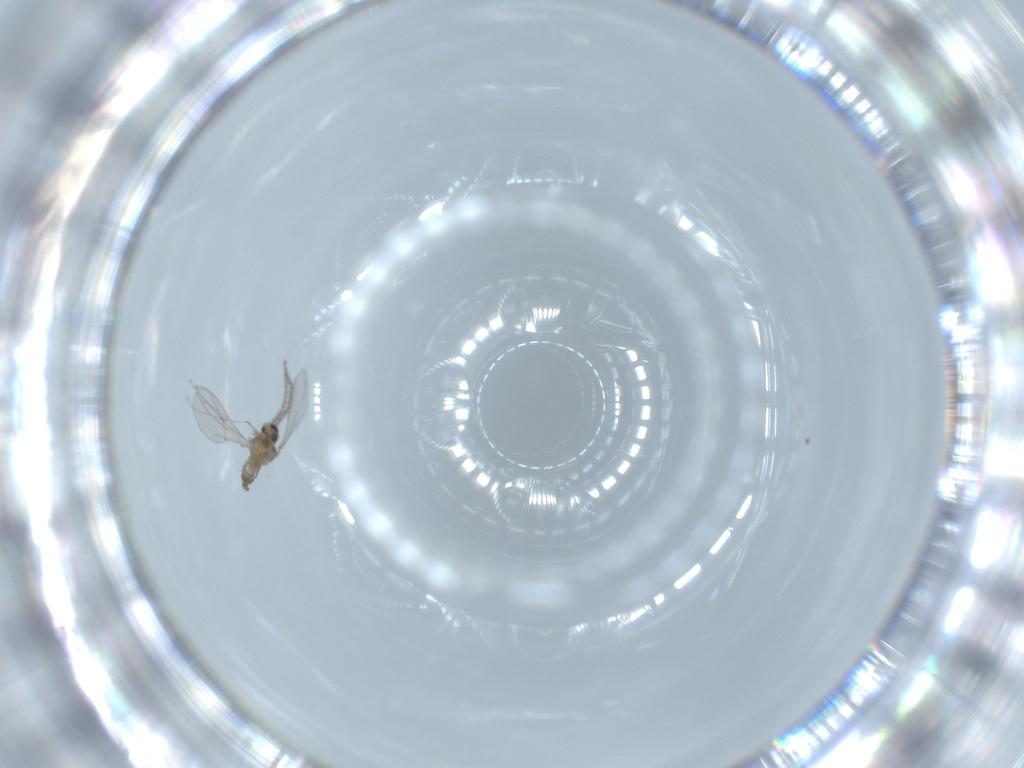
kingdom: Animalia
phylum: Arthropoda
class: Insecta
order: Diptera
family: Cecidomyiidae
